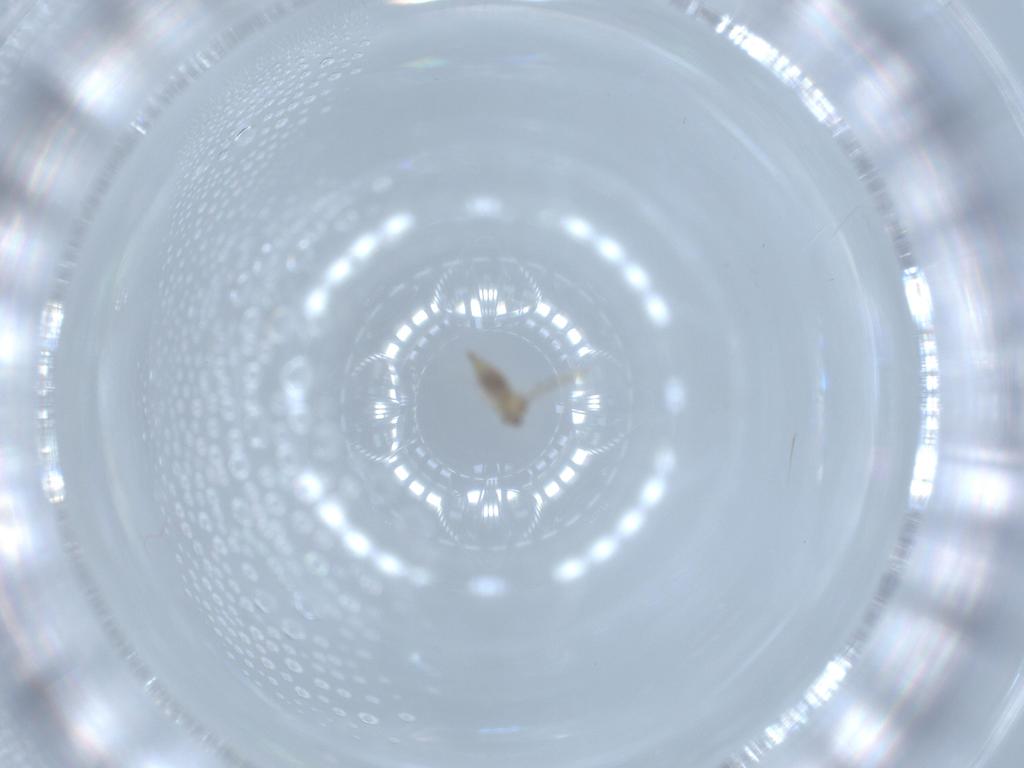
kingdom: Animalia
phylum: Arthropoda
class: Insecta
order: Diptera
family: Cecidomyiidae
